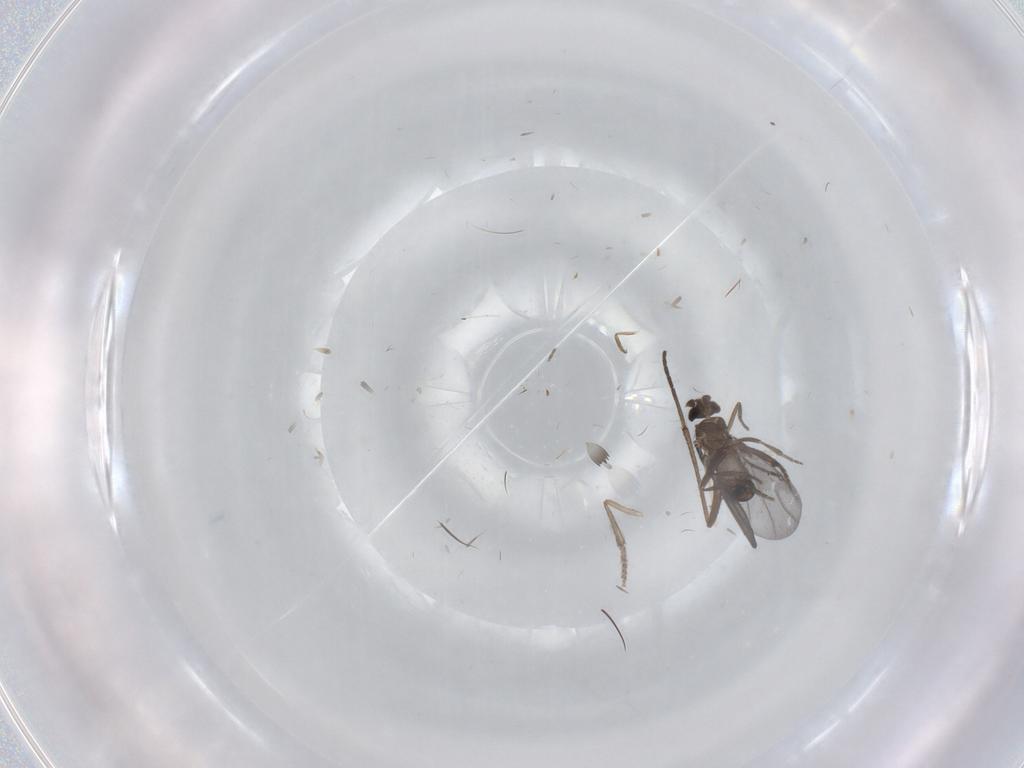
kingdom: Animalia
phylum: Arthropoda
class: Insecta
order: Diptera
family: Phoridae
